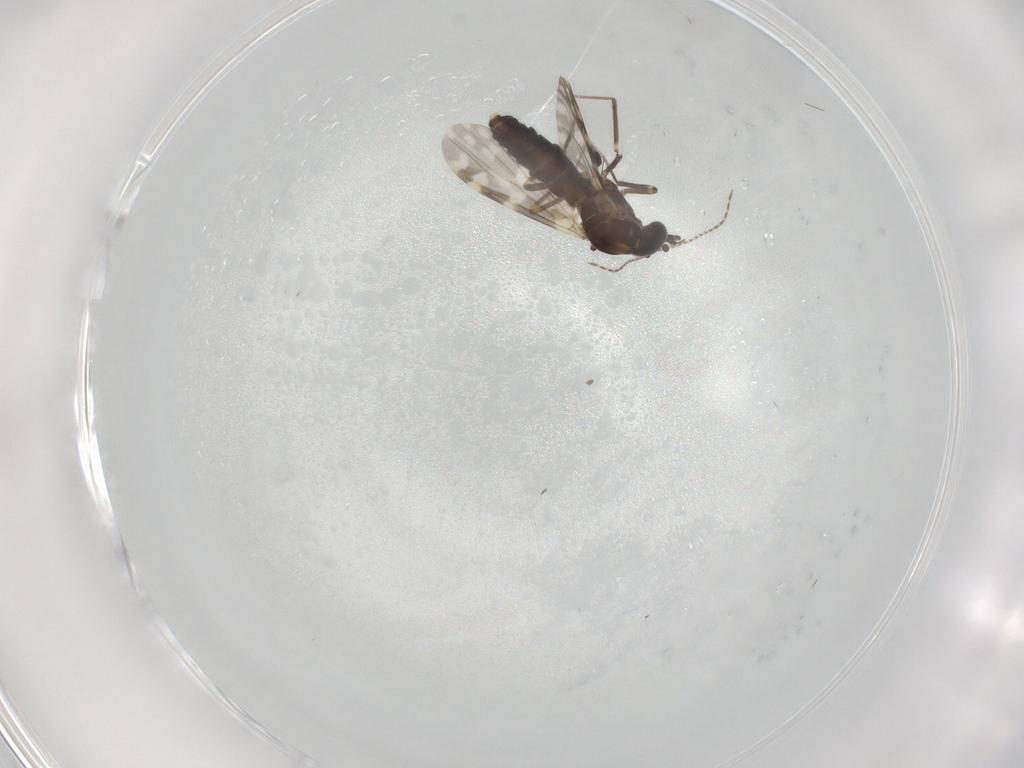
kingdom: Animalia
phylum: Arthropoda
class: Insecta
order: Diptera
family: Ceratopogonidae
